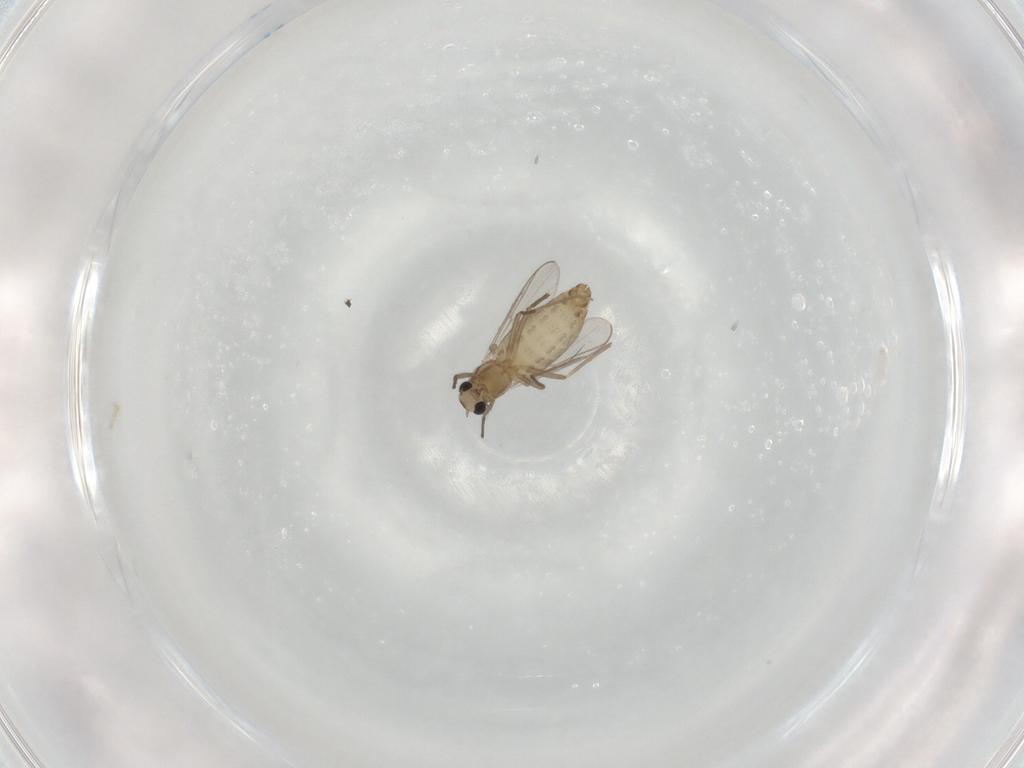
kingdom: Animalia
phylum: Arthropoda
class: Insecta
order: Diptera
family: Chironomidae
